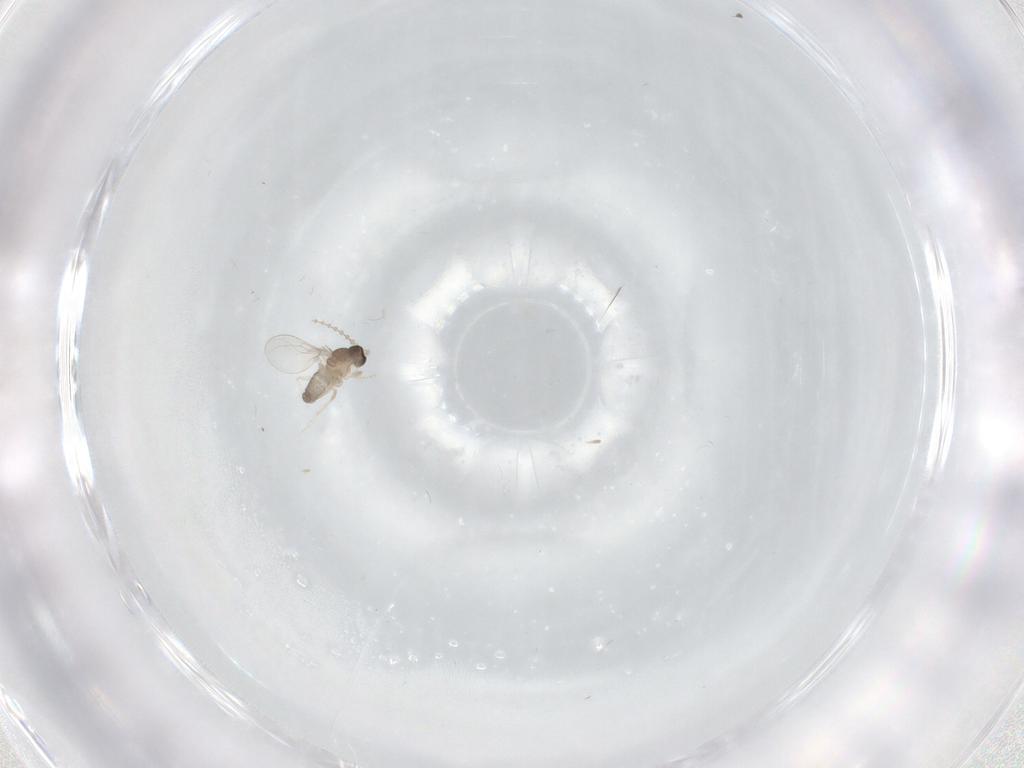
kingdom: Animalia
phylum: Arthropoda
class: Insecta
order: Diptera
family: Cecidomyiidae
